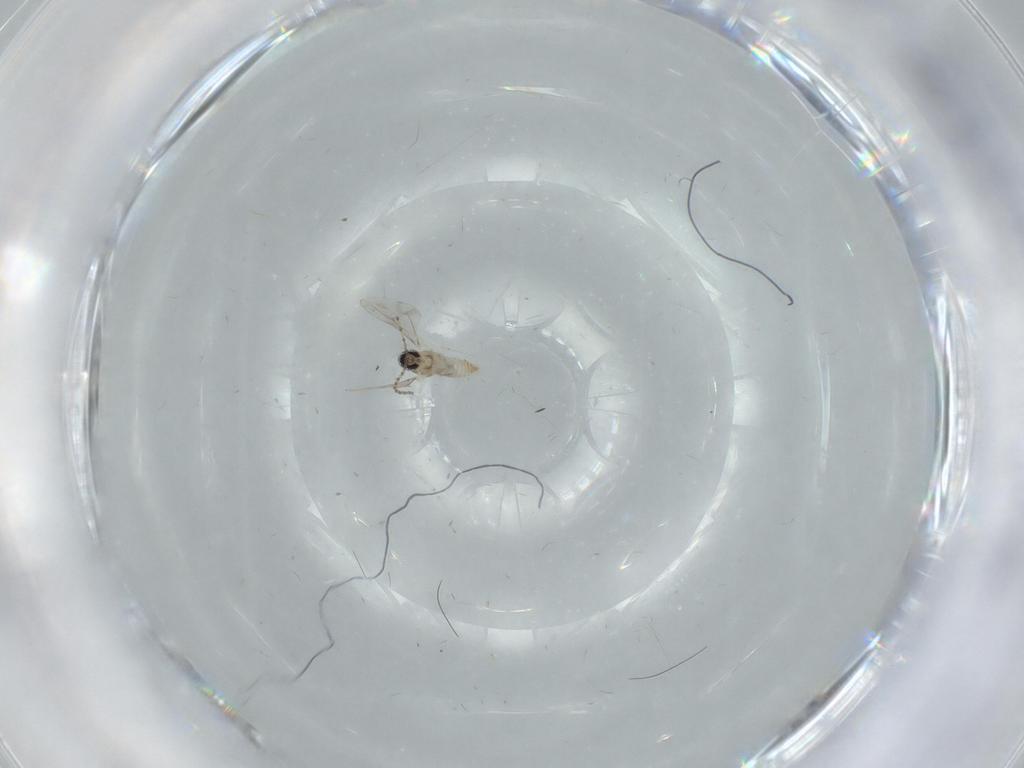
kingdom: Animalia
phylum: Arthropoda
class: Insecta
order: Diptera
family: Cecidomyiidae
